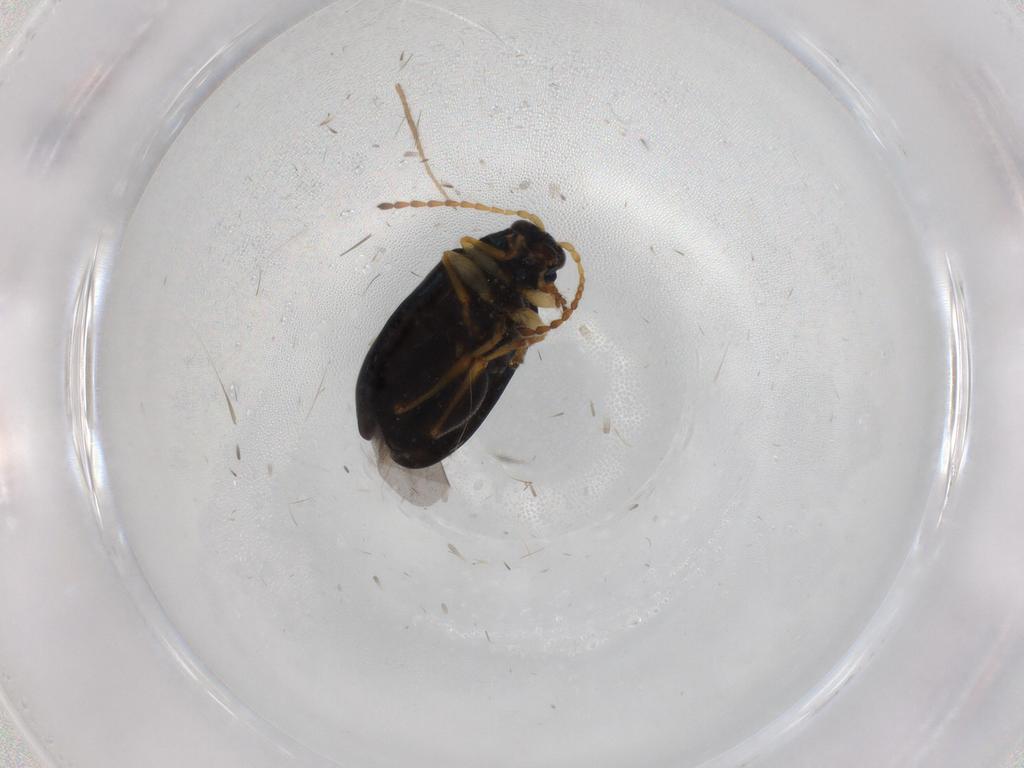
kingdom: Animalia
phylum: Arthropoda
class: Insecta
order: Coleoptera
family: Chrysomelidae
